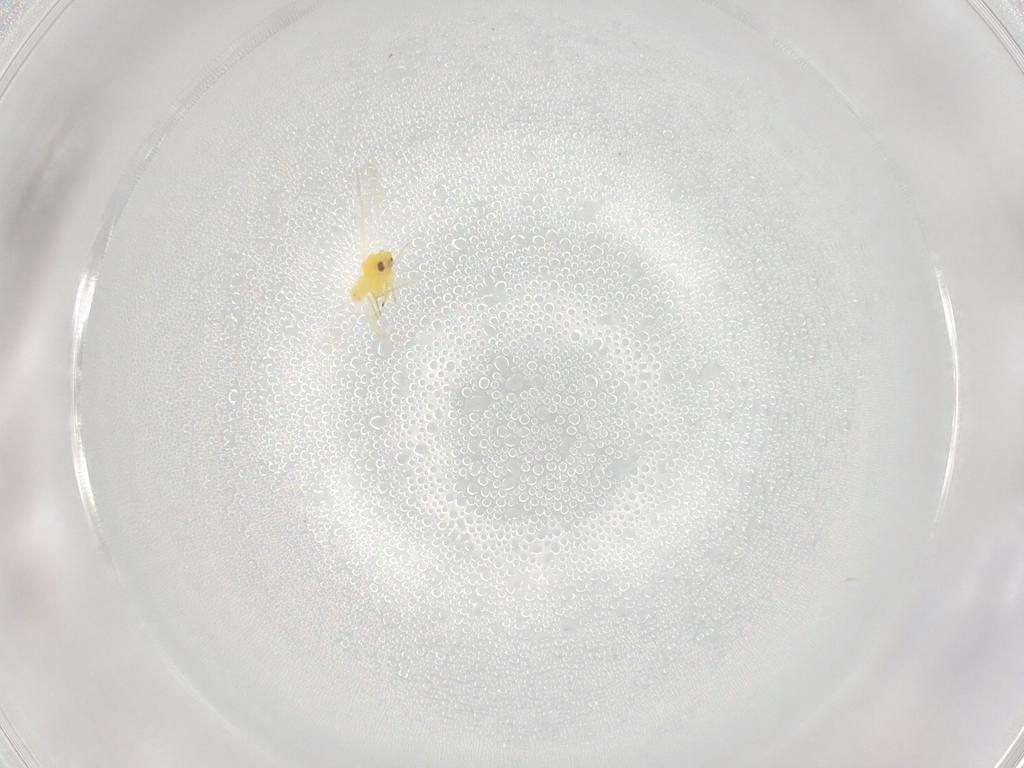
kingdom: Animalia
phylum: Arthropoda
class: Insecta
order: Hemiptera
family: Aleyrodidae
